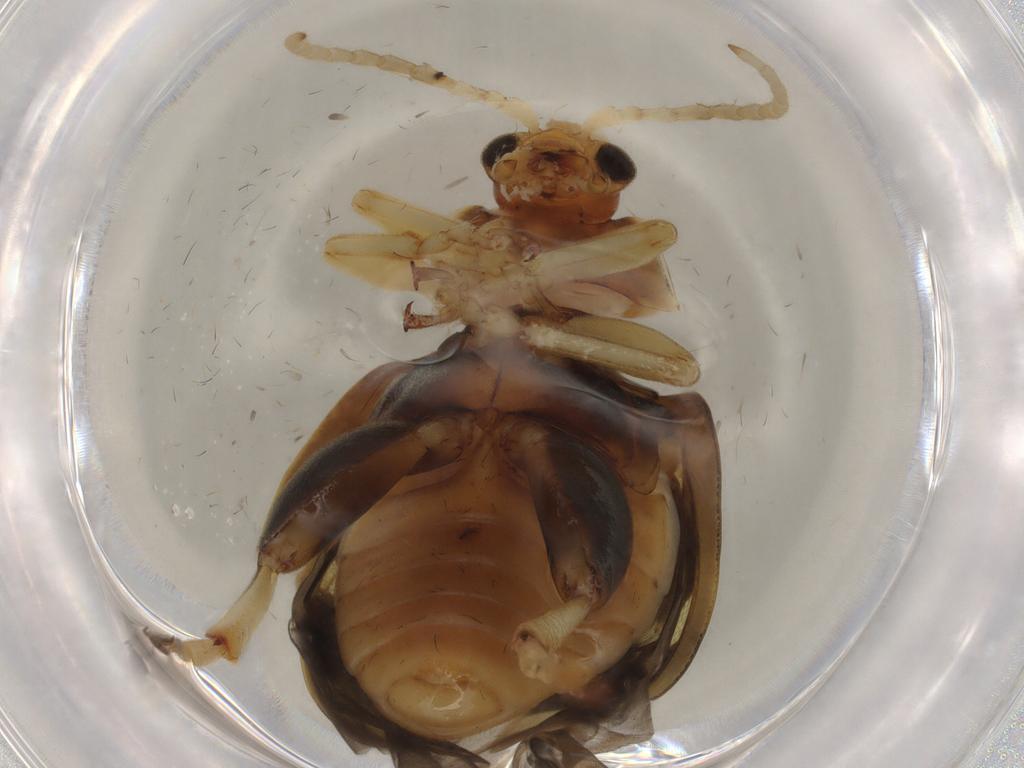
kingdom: Animalia
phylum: Arthropoda
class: Insecta
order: Coleoptera
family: Chrysomelidae
